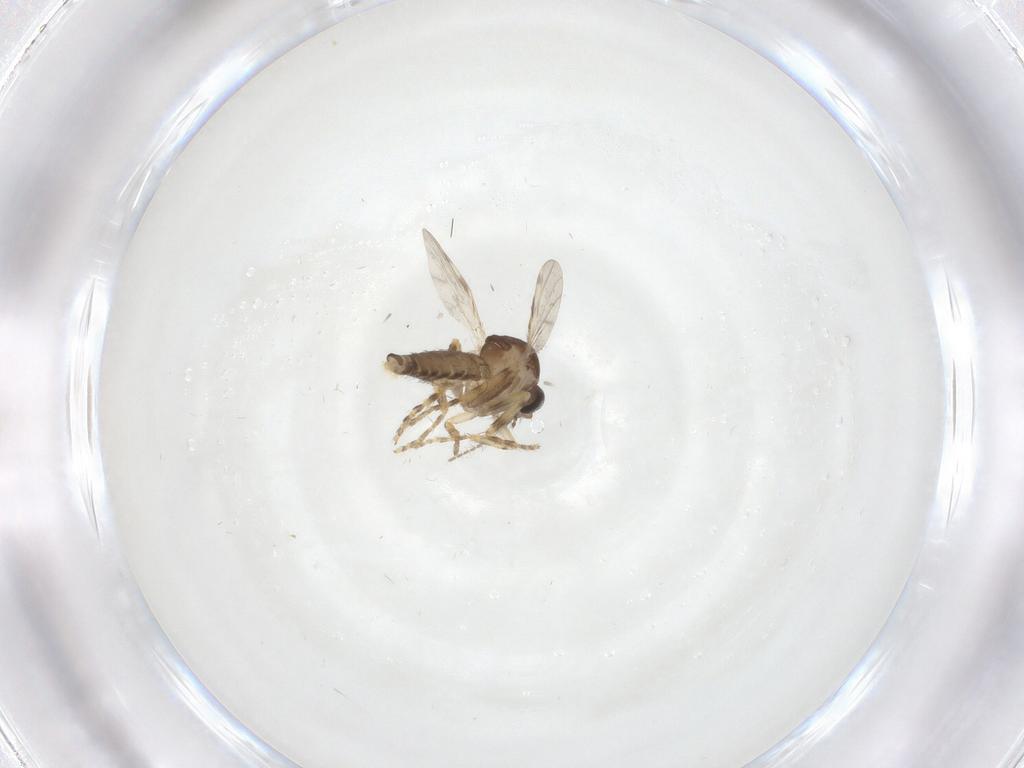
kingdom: Animalia
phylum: Arthropoda
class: Insecta
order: Diptera
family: Ceratopogonidae
